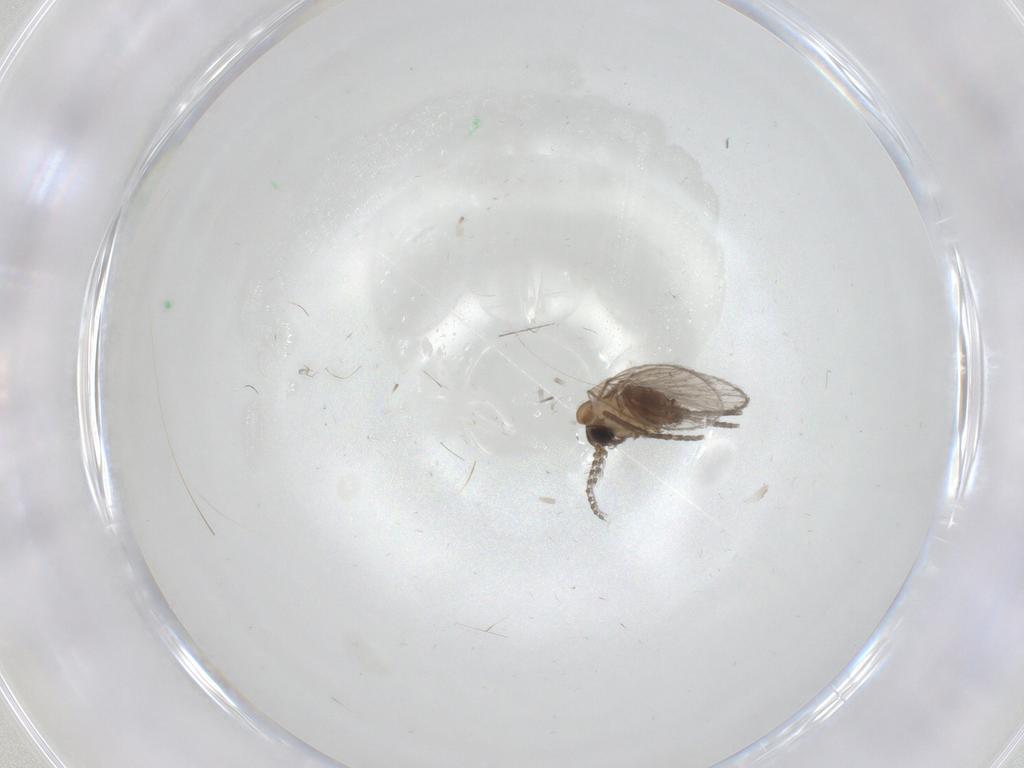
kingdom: Animalia
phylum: Arthropoda
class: Insecta
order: Diptera
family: Chironomidae
